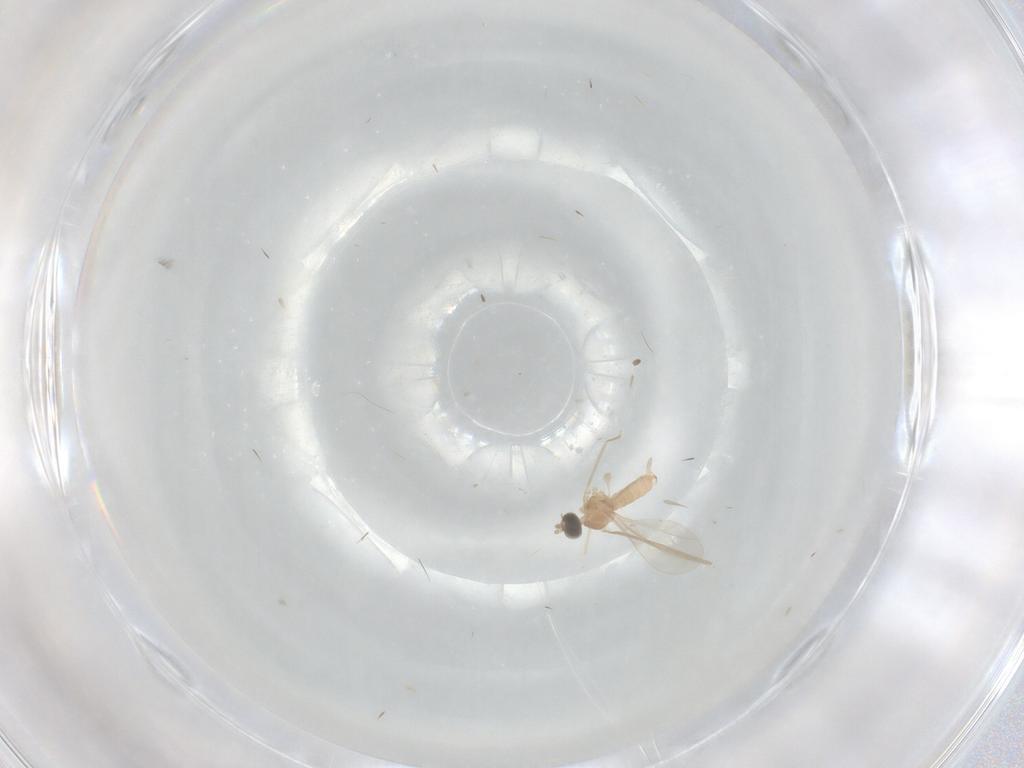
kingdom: Animalia
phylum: Arthropoda
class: Insecta
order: Diptera
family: Cecidomyiidae
